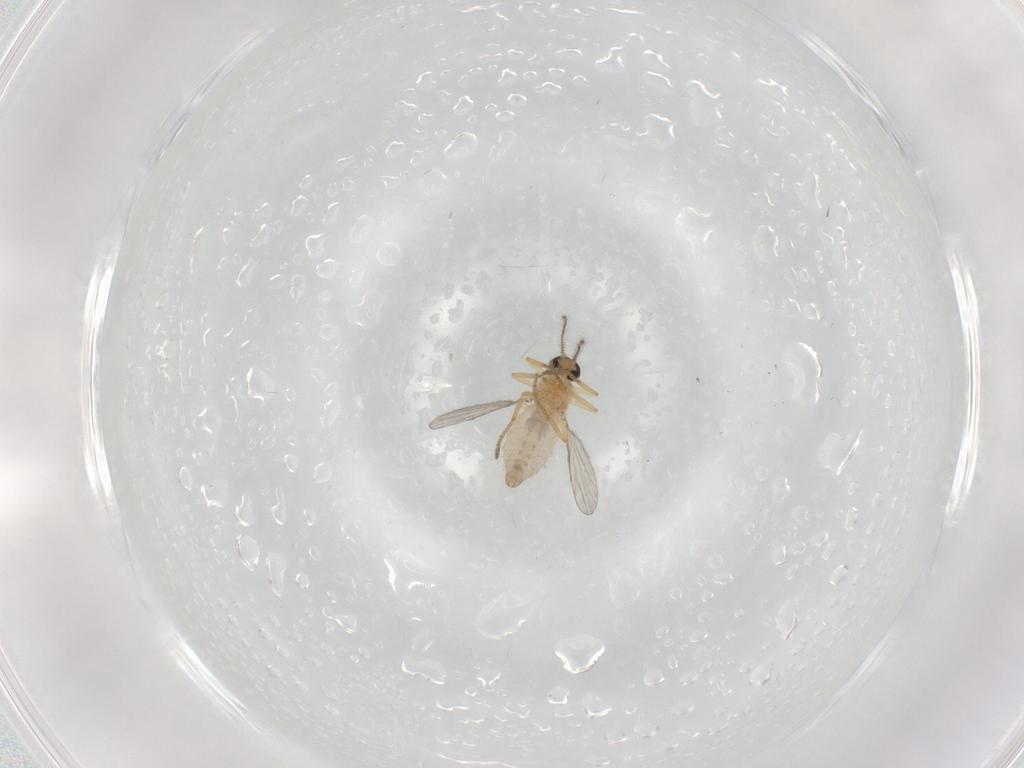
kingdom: Animalia
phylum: Arthropoda
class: Insecta
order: Diptera
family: Ceratopogonidae
